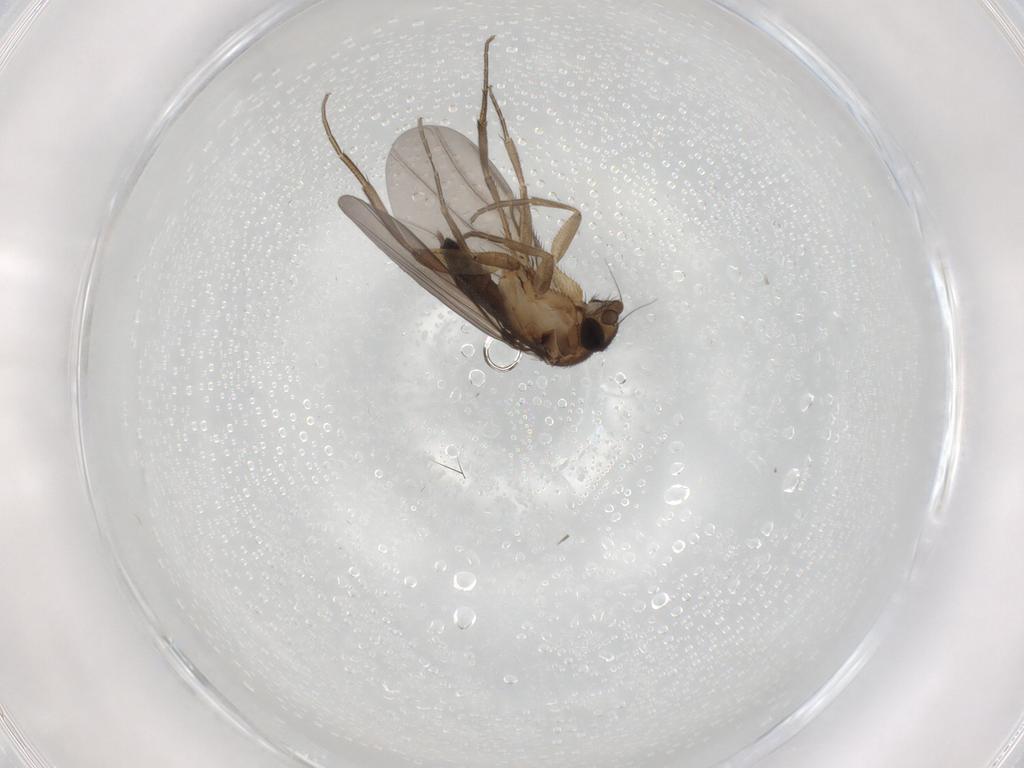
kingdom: Animalia
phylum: Arthropoda
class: Insecta
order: Diptera
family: Phoridae
